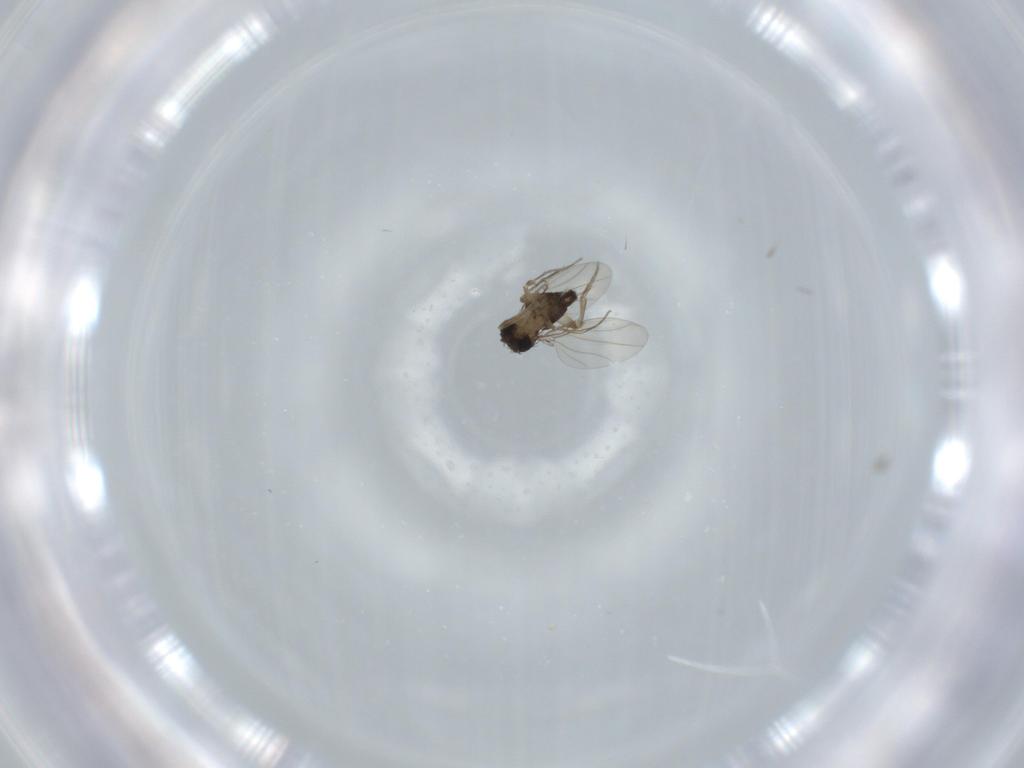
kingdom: Animalia
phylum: Arthropoda
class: Insecta
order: Diptera
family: Phoridae
